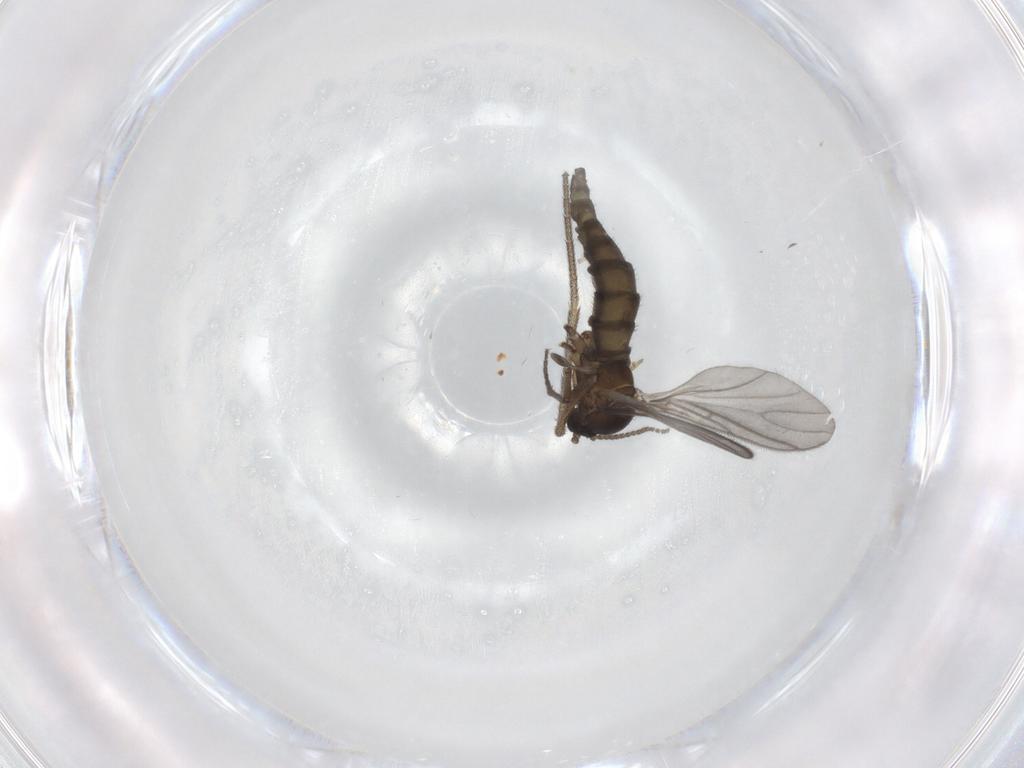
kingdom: Animalia
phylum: Arthropoda
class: Insecta
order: Diptera
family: Sciaridae
